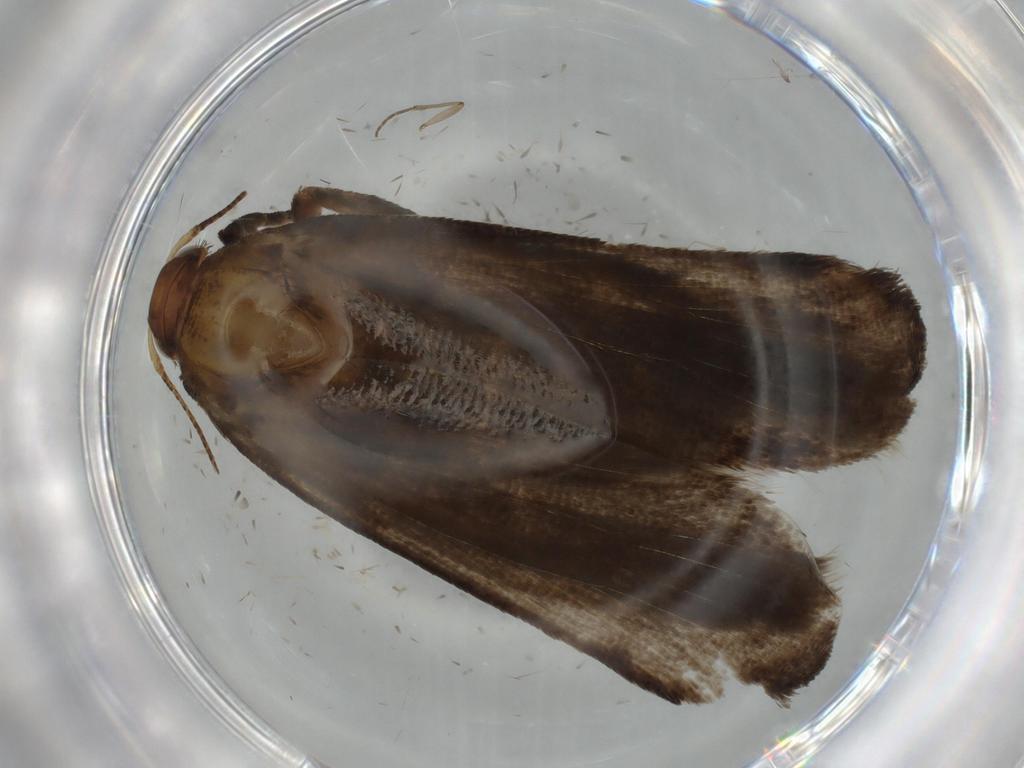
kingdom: Animalia
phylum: Arthropoda
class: Insecta
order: Lepidoptera
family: Gelechiidae
